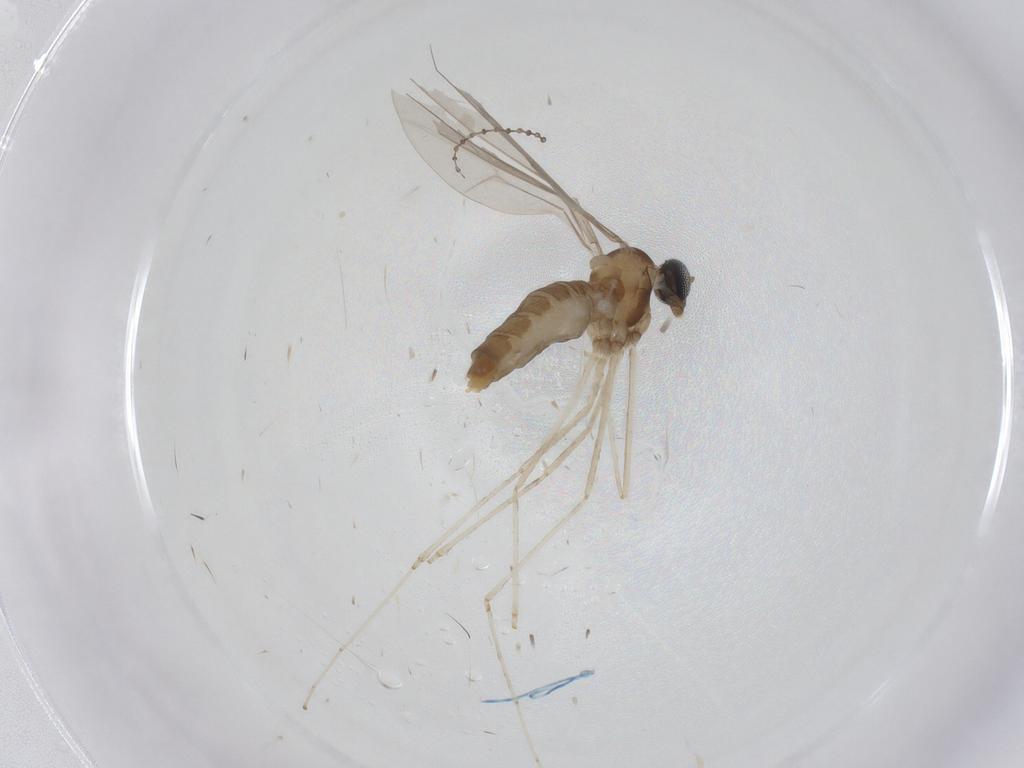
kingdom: Animalia
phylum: Arthropoda
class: Insecta
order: Diptera
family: Cecidomyiidae
